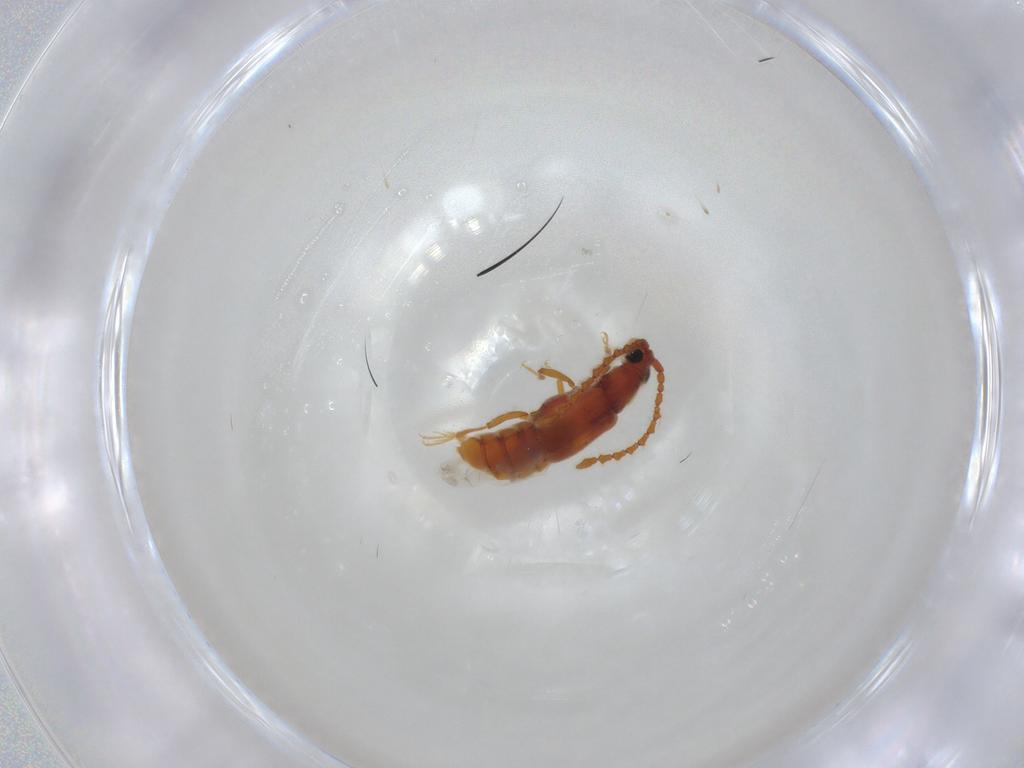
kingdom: Animalia
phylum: Arthropoda
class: Insecta
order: Coleoptera
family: Staphylinidae
